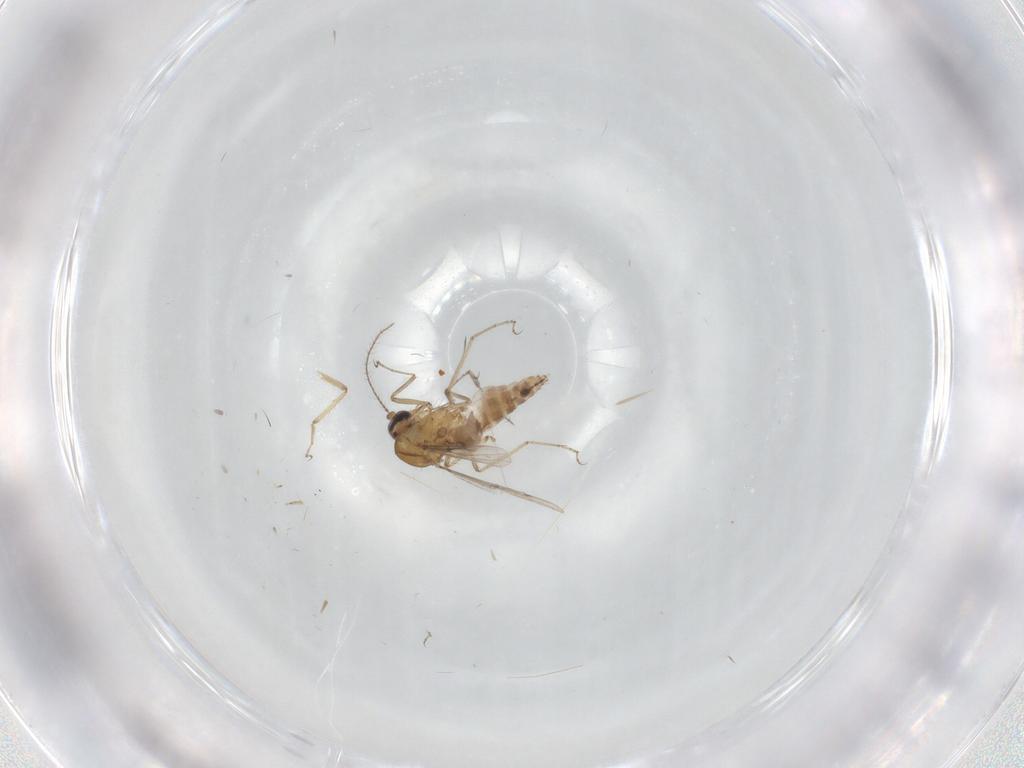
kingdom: Animalia
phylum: Arthropoda
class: Insecta
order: Diptera
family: Ceratopogonidae
